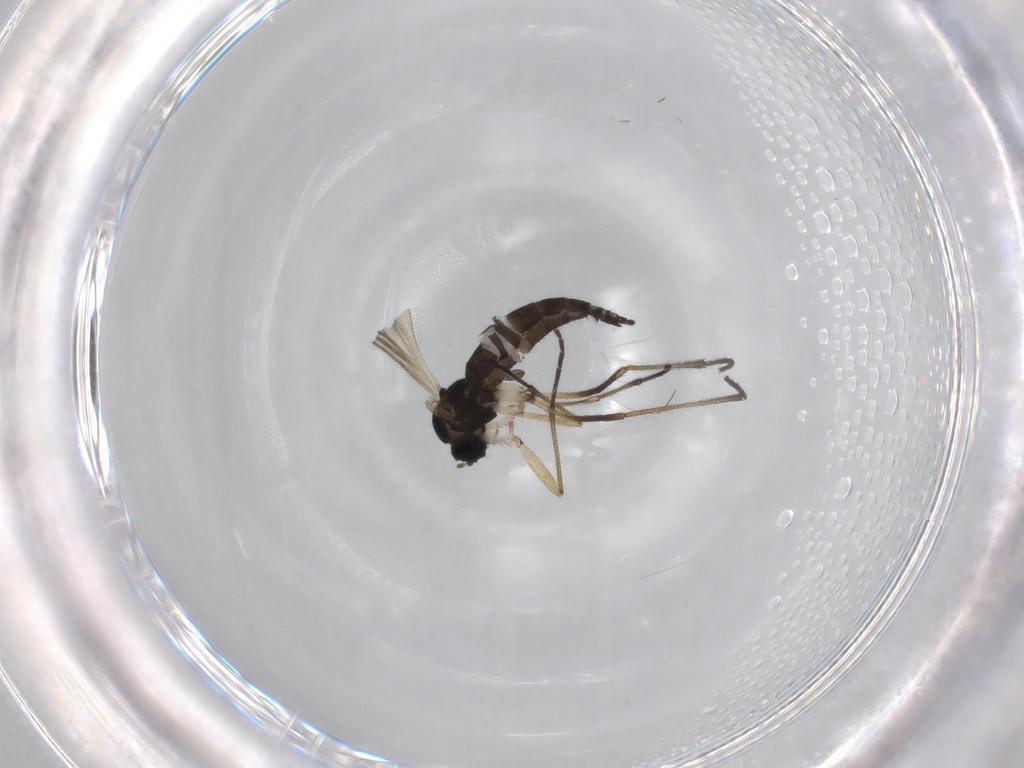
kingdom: Animalia
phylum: Arthropoda
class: Insecta
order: Diptera
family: Sciaridae
